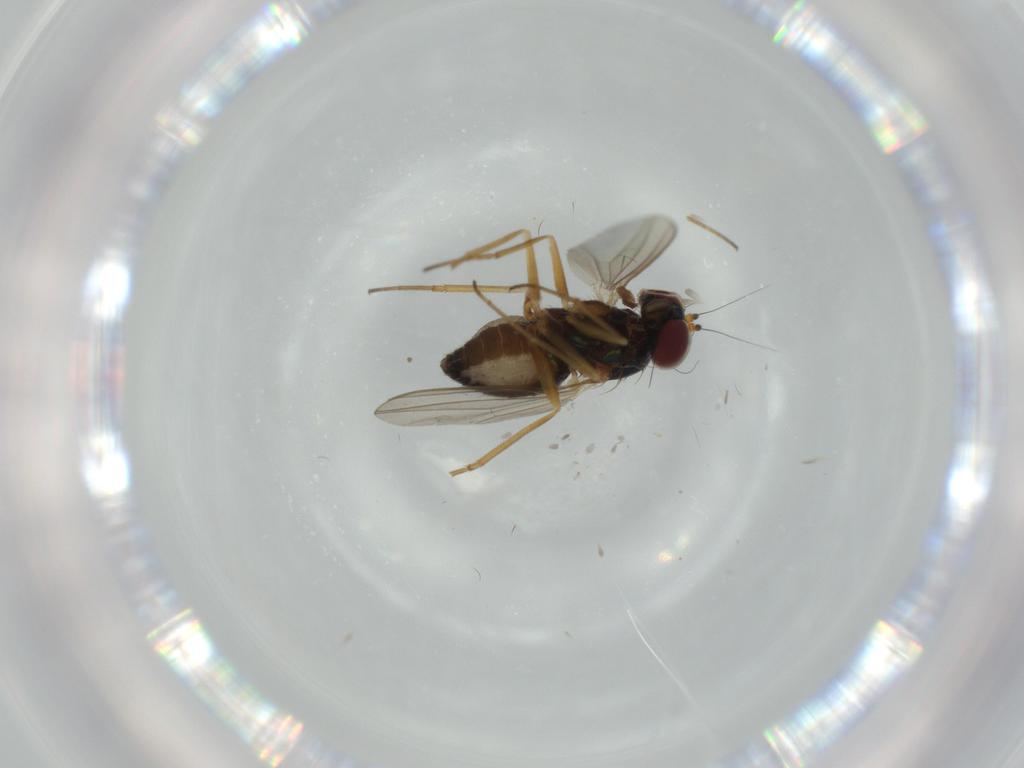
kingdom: Animalia
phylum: Arthropoda
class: Insecta
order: Diptera
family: Dolichopodidae
